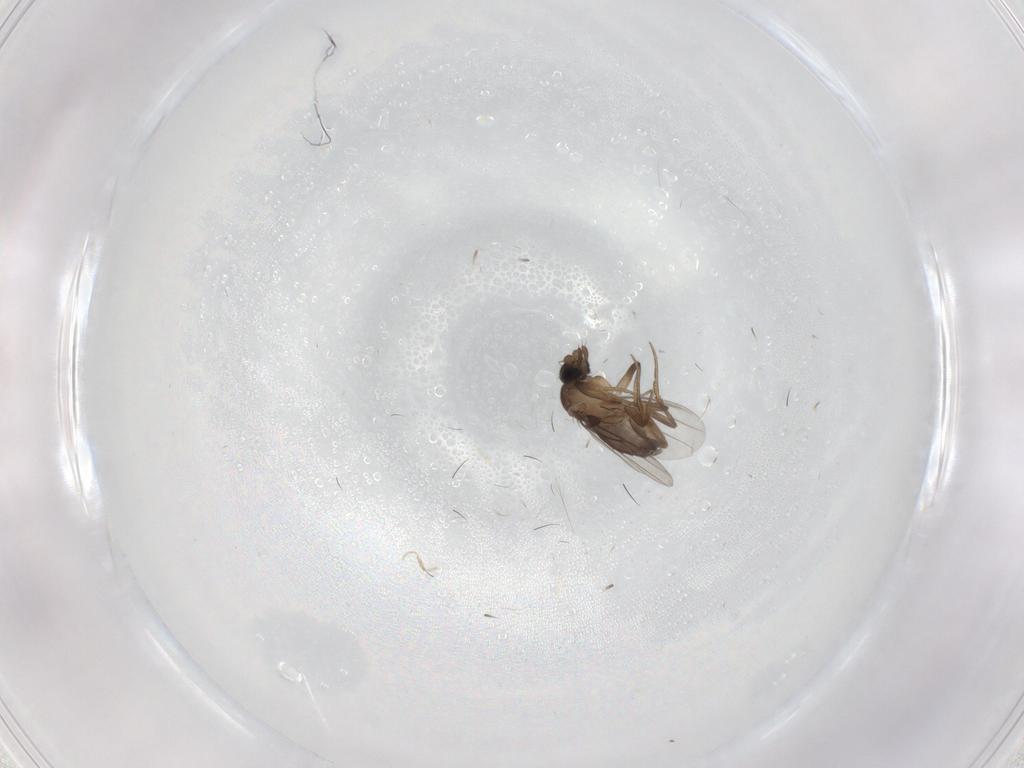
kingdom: Animalia
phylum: Arthropoda
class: Insecta
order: Diptera
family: Phoridae
